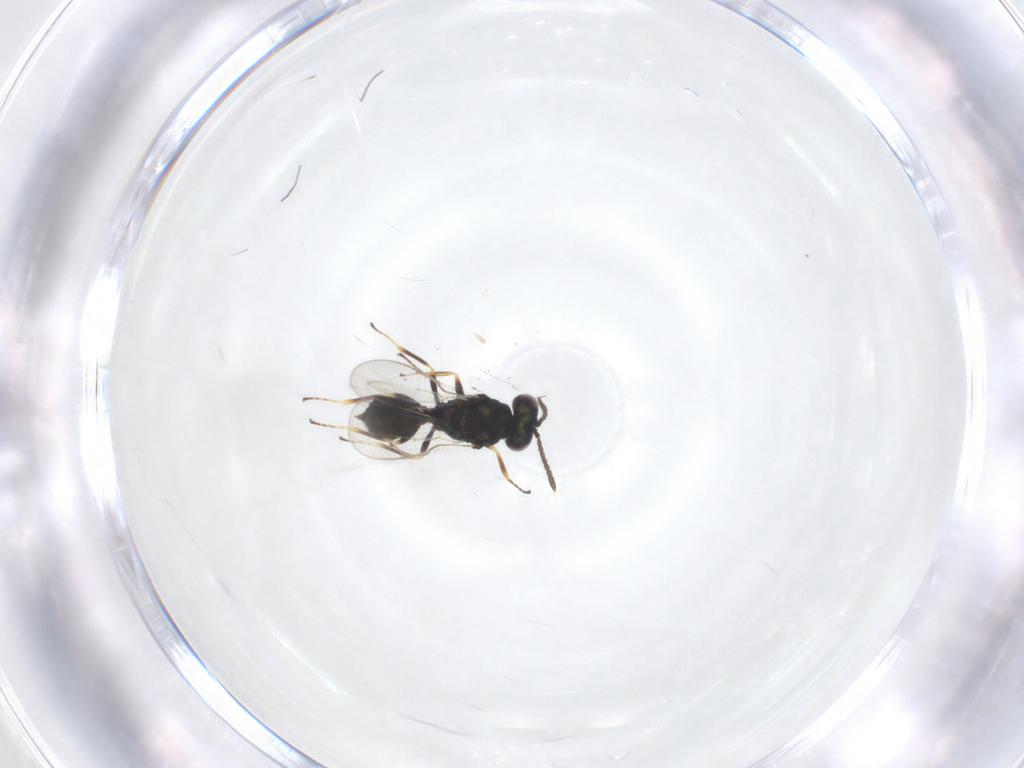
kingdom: Animalia
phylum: Arthropoda
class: Insecta
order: Hymenoptera
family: Pteromalidae
